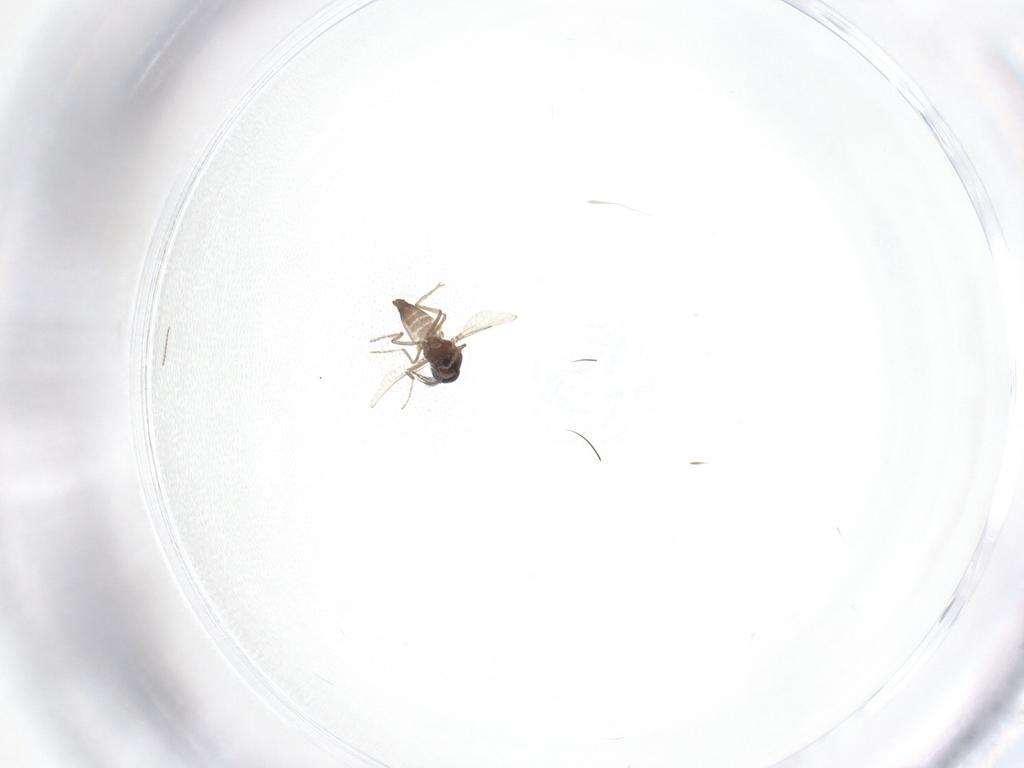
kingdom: Animalia
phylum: Arthropoda
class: Insecta
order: Diptera
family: Ceratopogonidae
